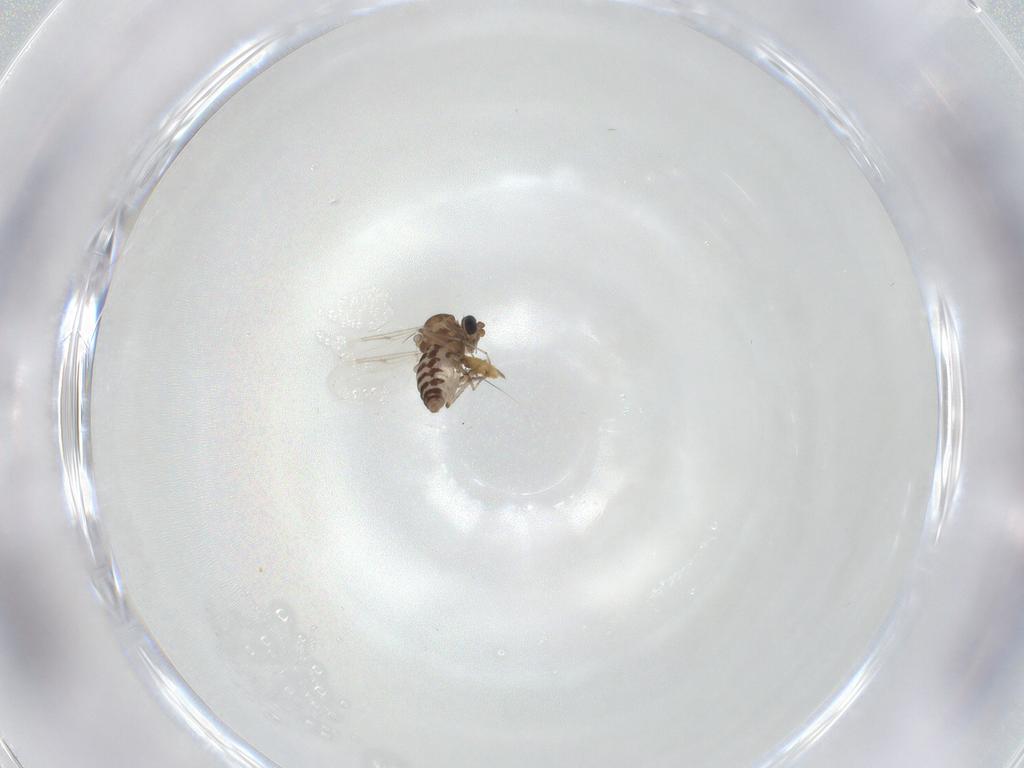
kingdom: Animalia
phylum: Arthropoda
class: Insecta
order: Diptera
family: Ceratopogonidae
